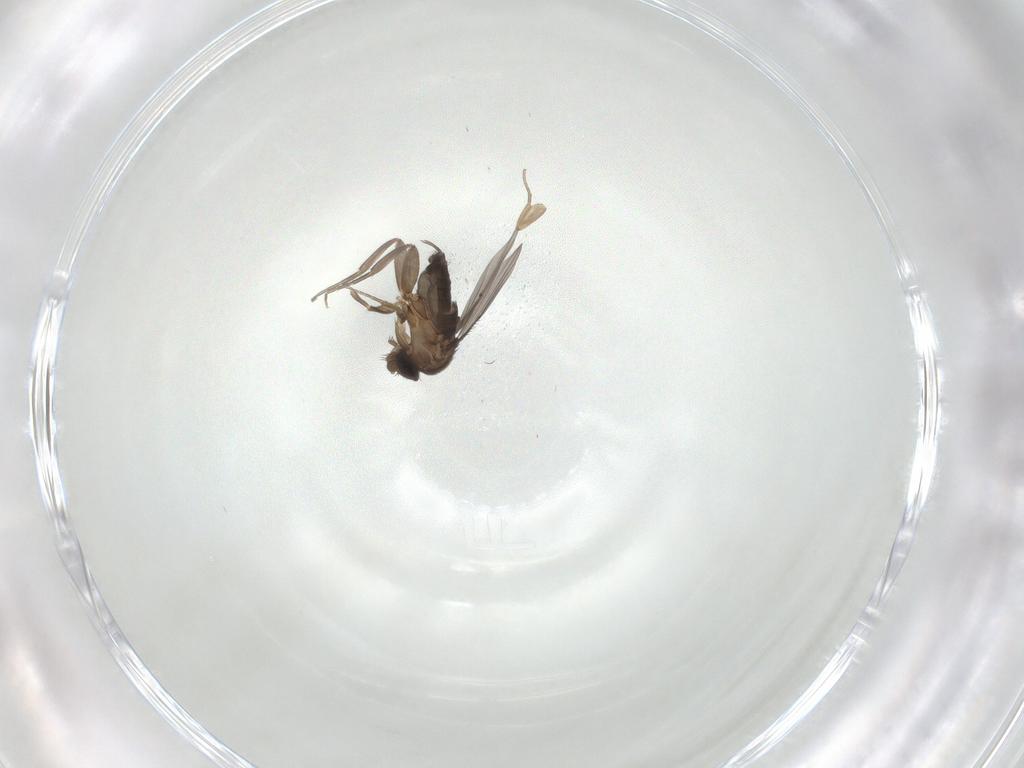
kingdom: Animalia
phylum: Arthropoda
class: Insecta
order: Diptera
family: Phoridae
